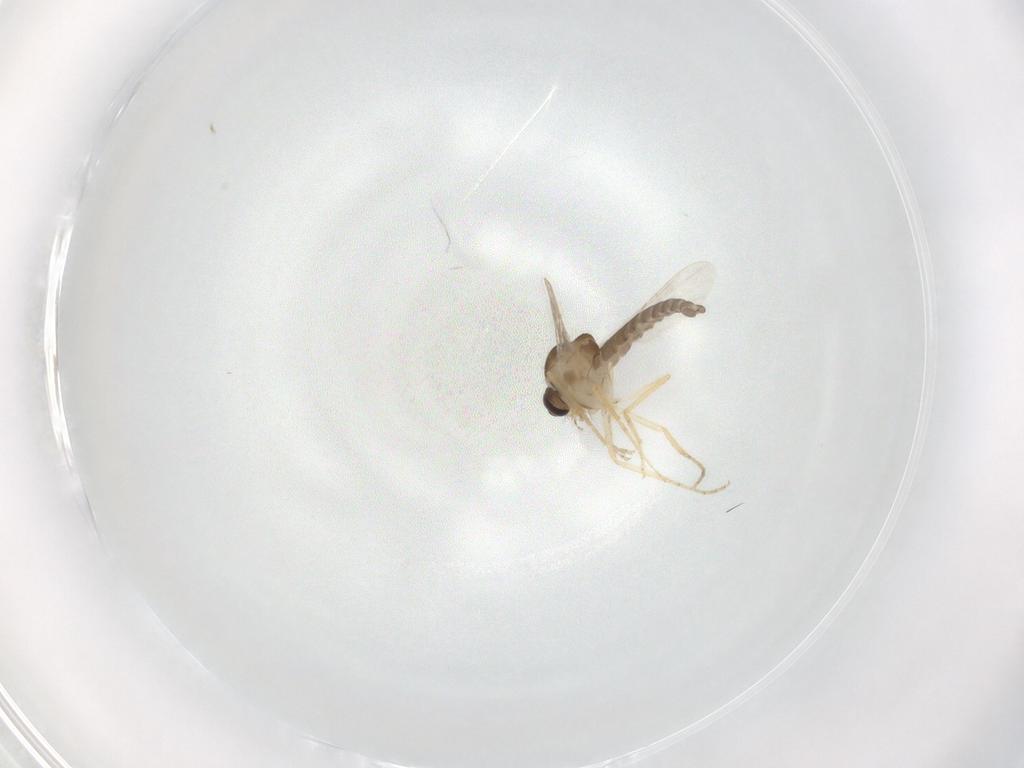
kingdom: Animalia
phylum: Arthropoda
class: Insecta
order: Diptera
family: Ceratopogonidae
